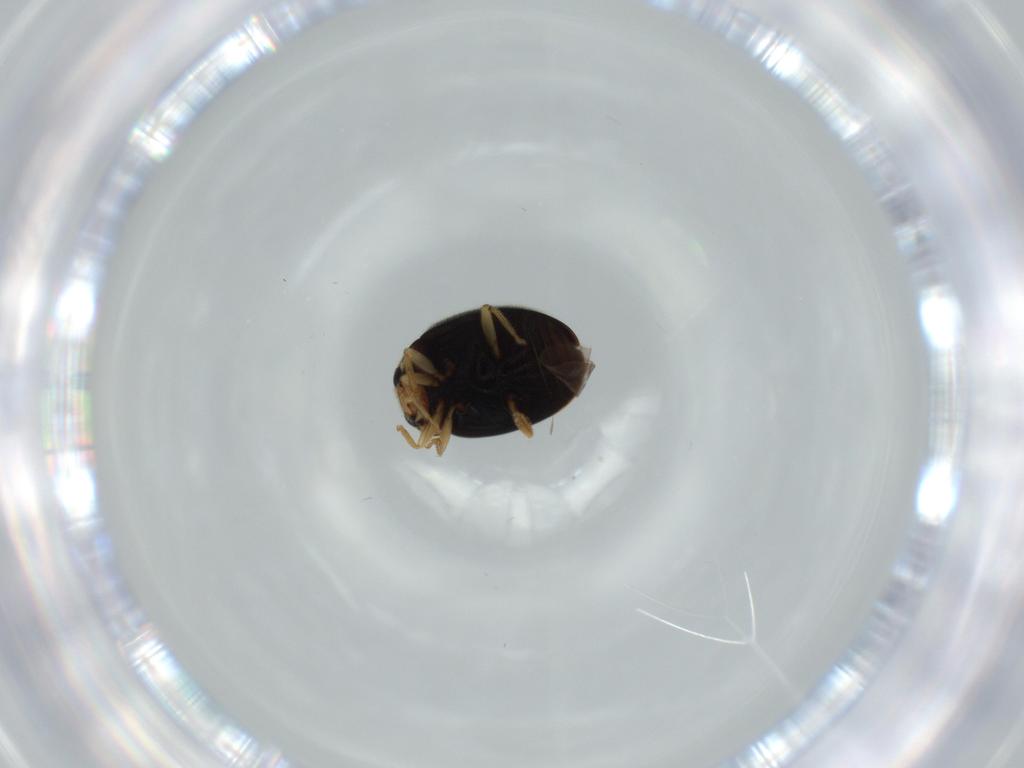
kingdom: Animalia
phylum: Arthropoda
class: Insecta
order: Coleoptera
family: Coccinellidae
